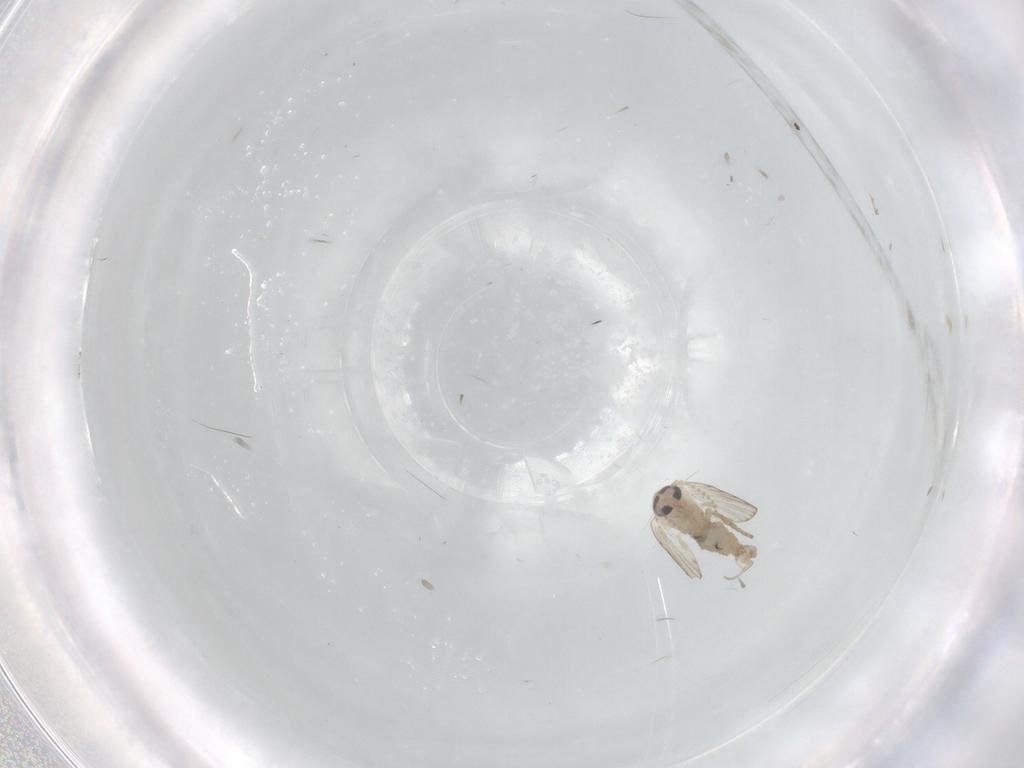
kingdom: Animalia
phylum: Arthropoda
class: Insecta
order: Diptera
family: Psychodidae
